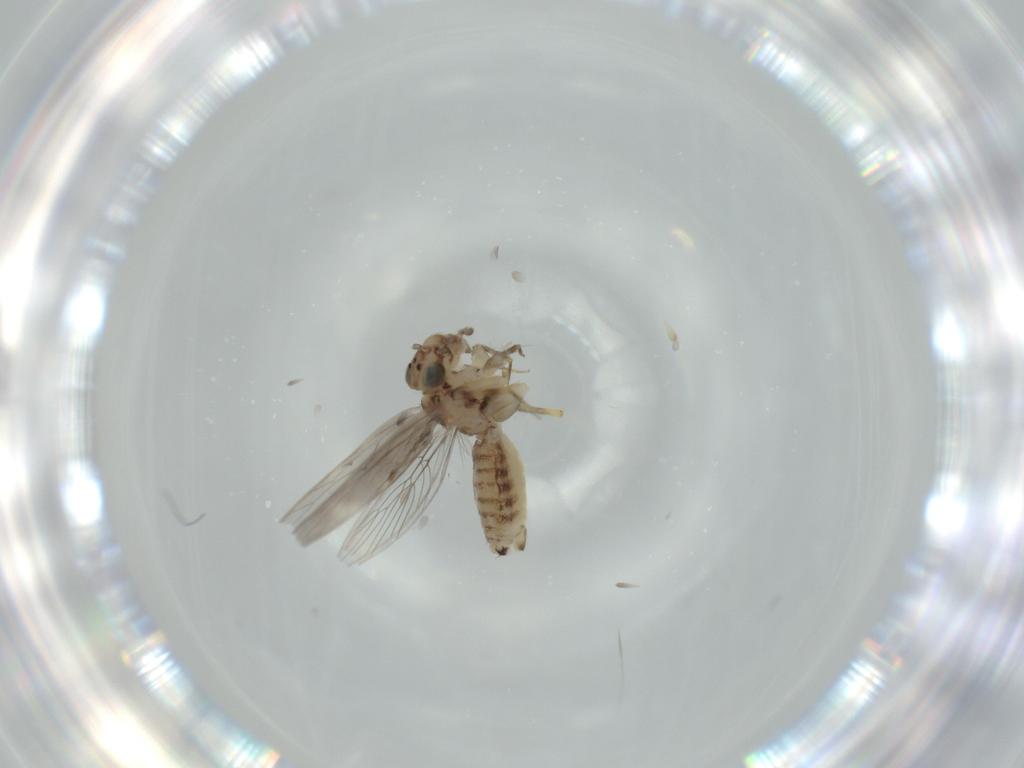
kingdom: Animalia
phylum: Arthropoda
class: Insecta
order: Psocodea
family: Lepidopsocidae
